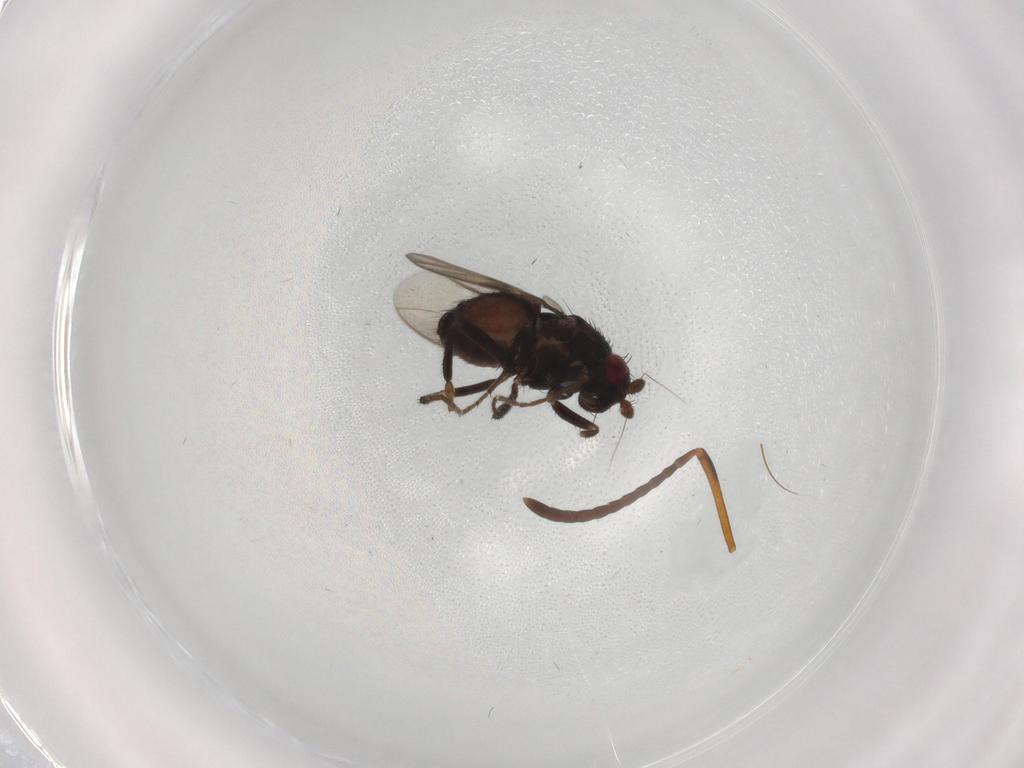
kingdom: Animalia
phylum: Arthropoda
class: Insecta
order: Diptera
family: Sphaeroceridae
